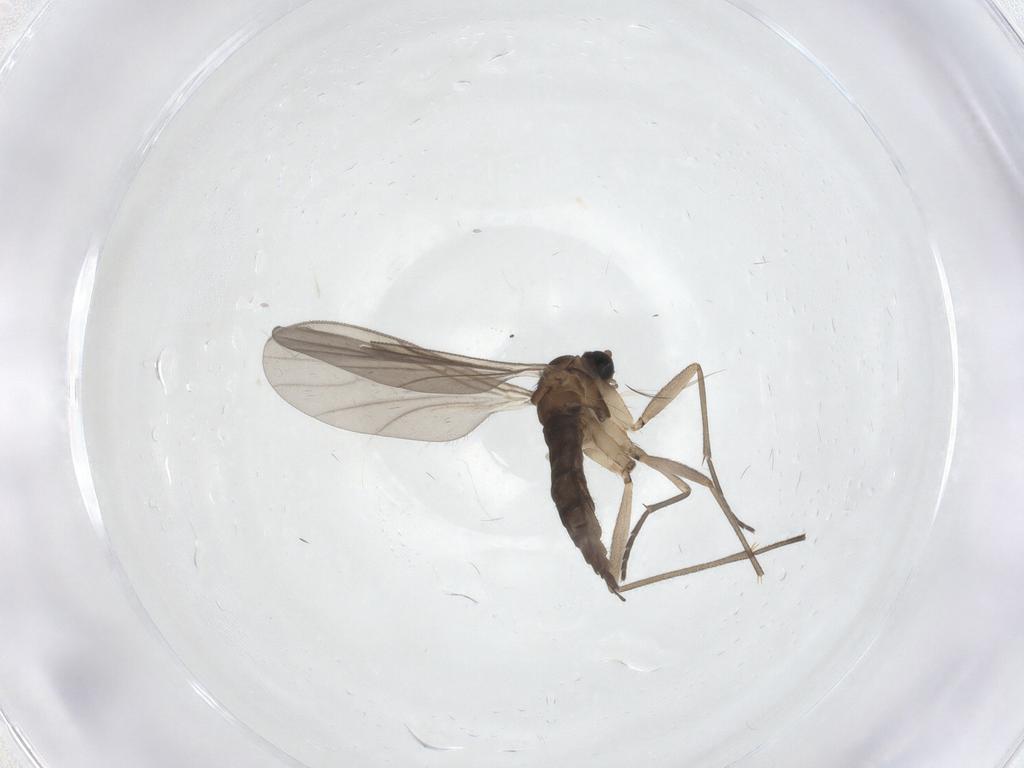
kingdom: Animalia
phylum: Arthropoda
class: Insecta
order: Diptera
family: Sciaridae
